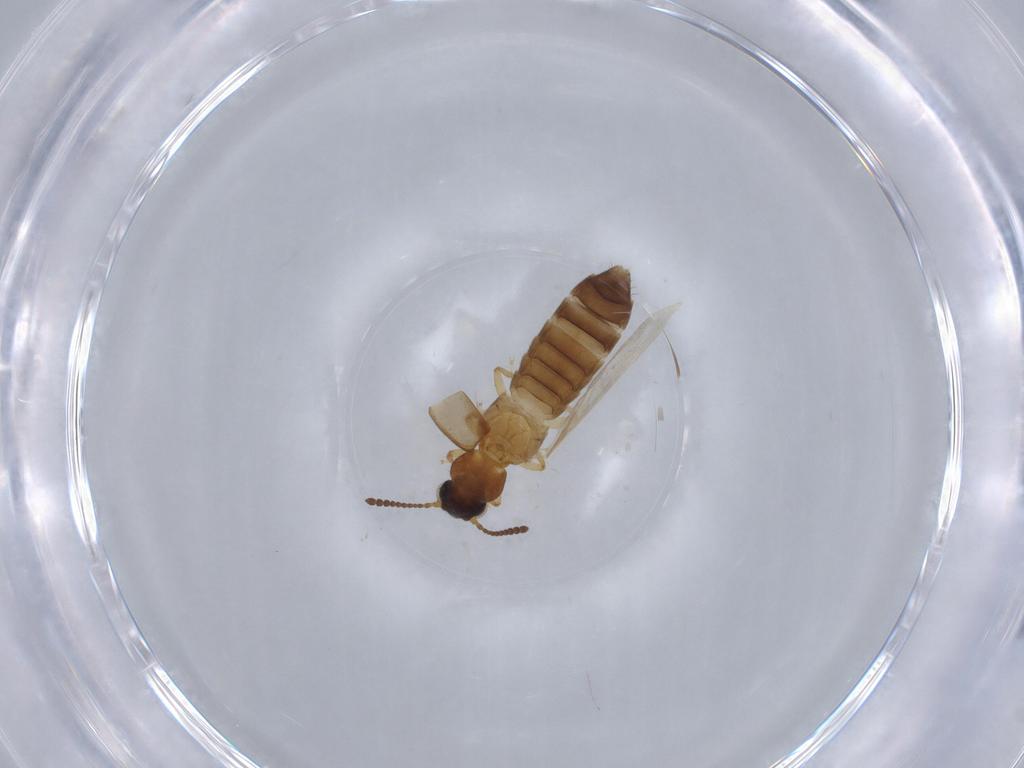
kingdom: Animalia
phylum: Arthropoda
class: Insecta
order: Coleoptera
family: Staphylinidae
